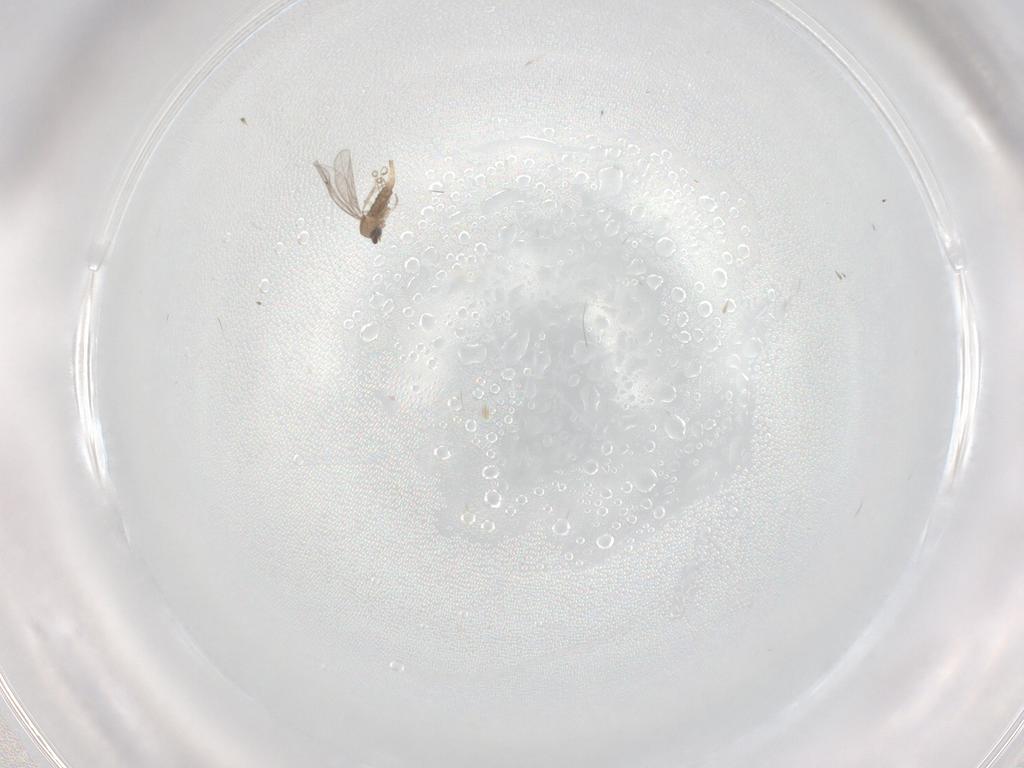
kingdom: Animalia
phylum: Arthropoda
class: Insecta
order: Diptera
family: Cecidomyiidae
